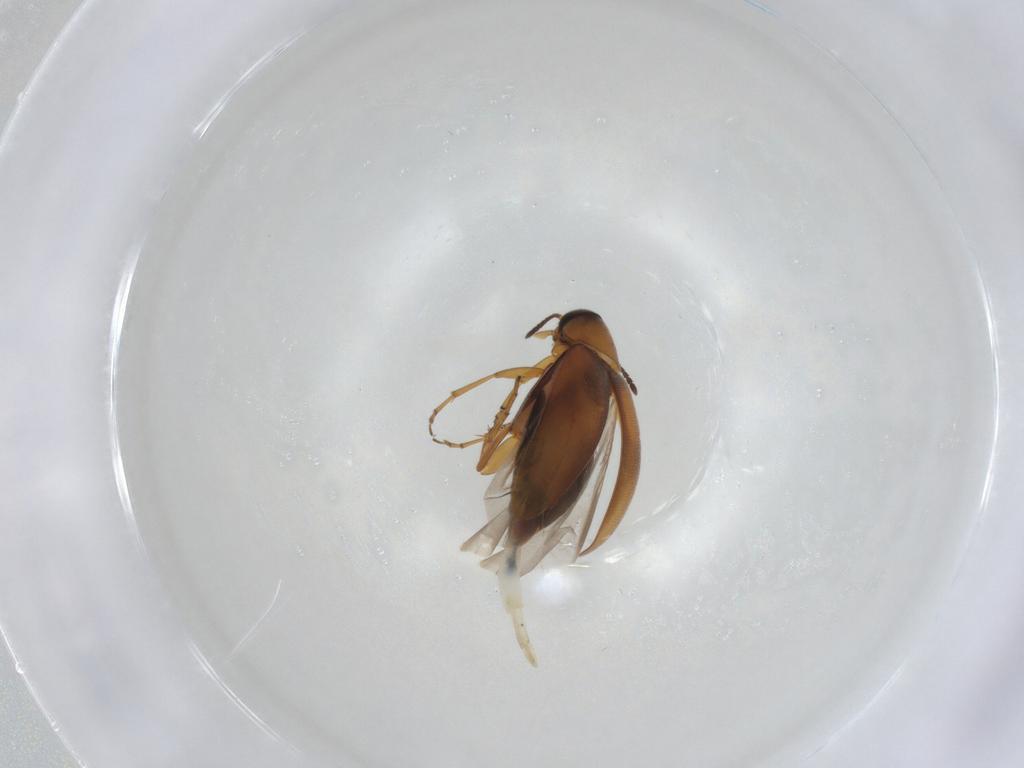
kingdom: Animalia
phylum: Arthropoda
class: Insecta
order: Coleoptera
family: Scraptiidae
